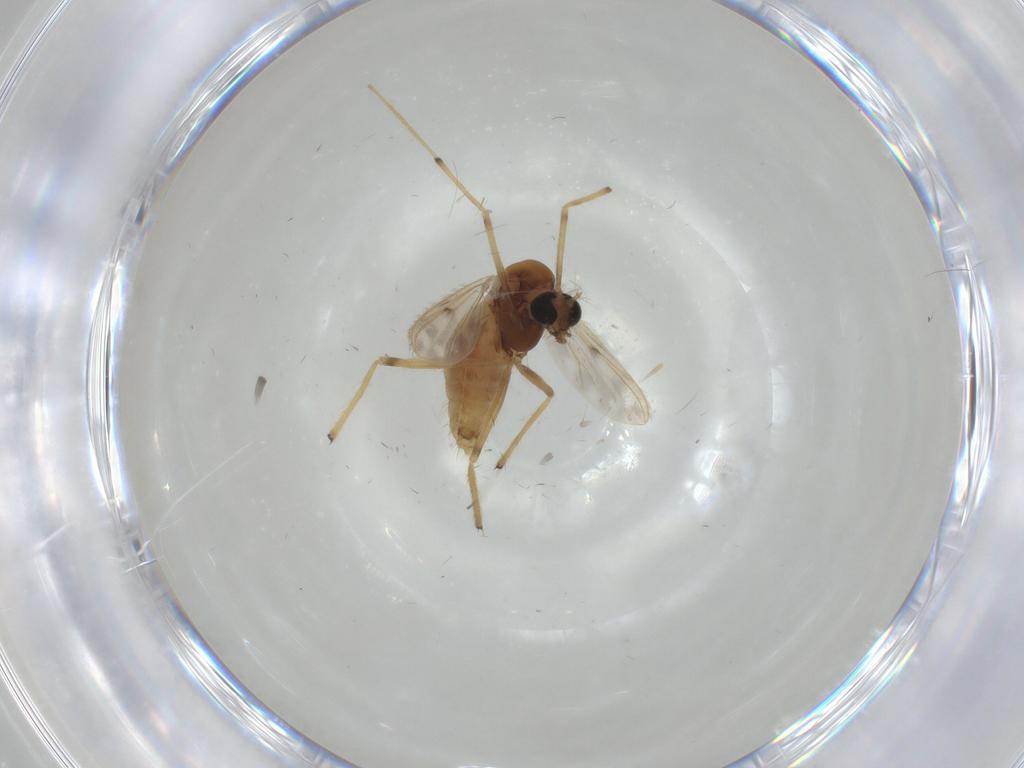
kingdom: Animalia
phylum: Arthropoda
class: Insecta
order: Diptera
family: Chironomidae
